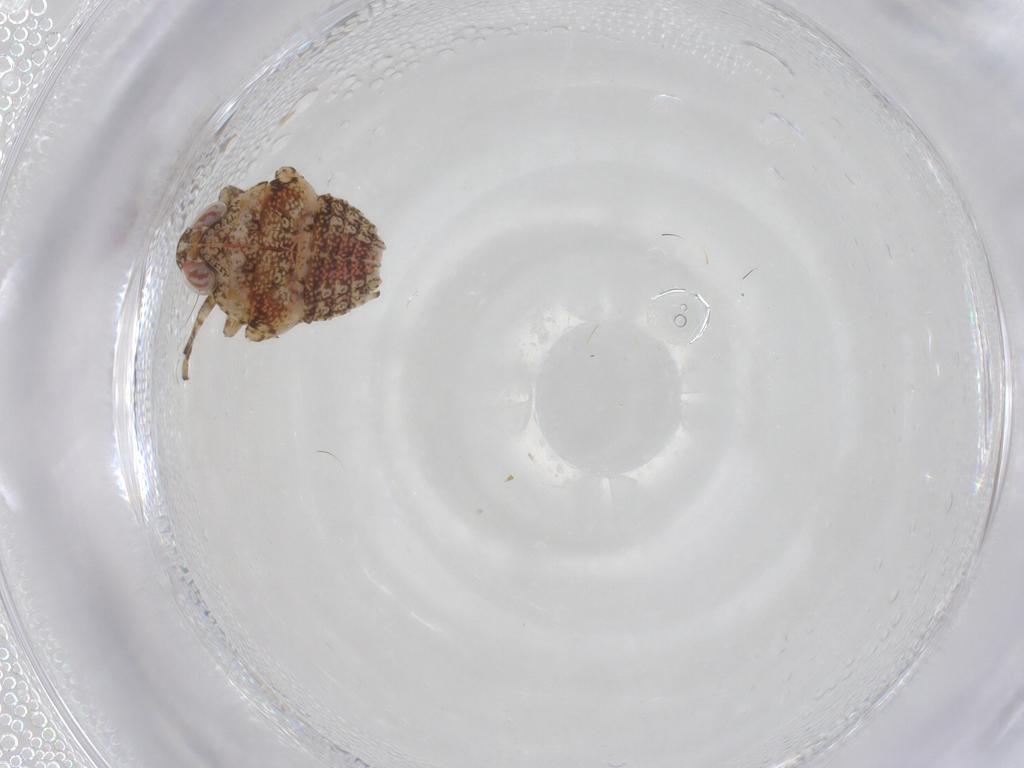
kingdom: Animalia
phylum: Arthropoda
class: Insecta
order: Hemiptera
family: Issidae
